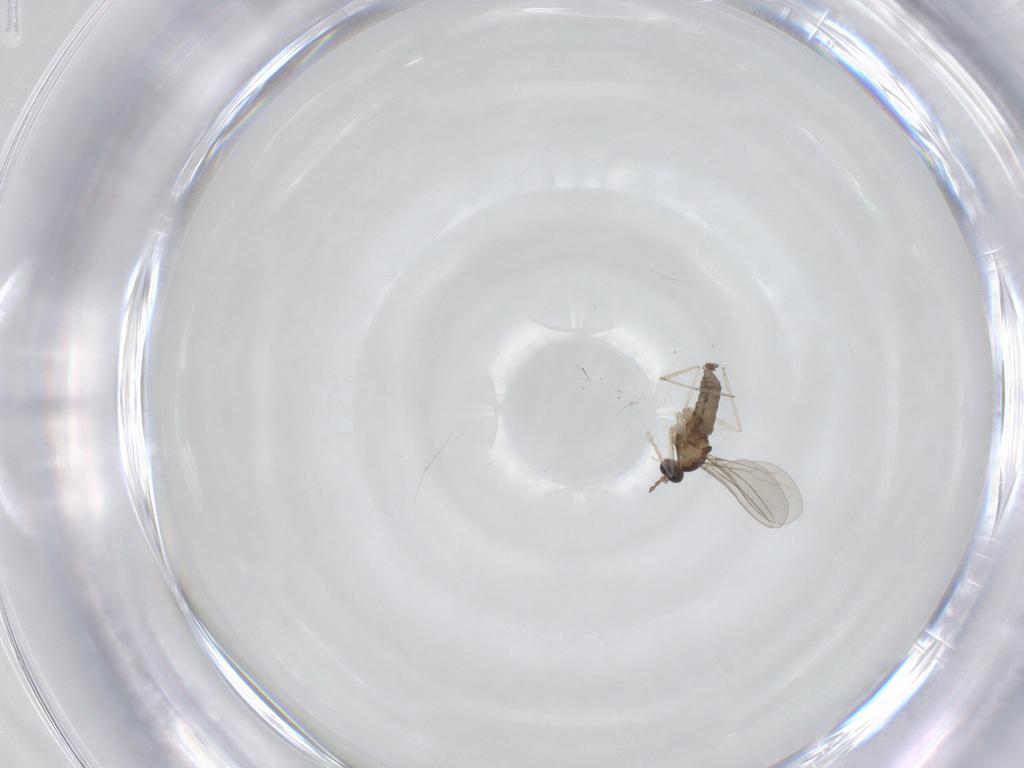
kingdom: Animalia
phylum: Arthropoda
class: Insecta
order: Diptera
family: Cecidomyiidae
